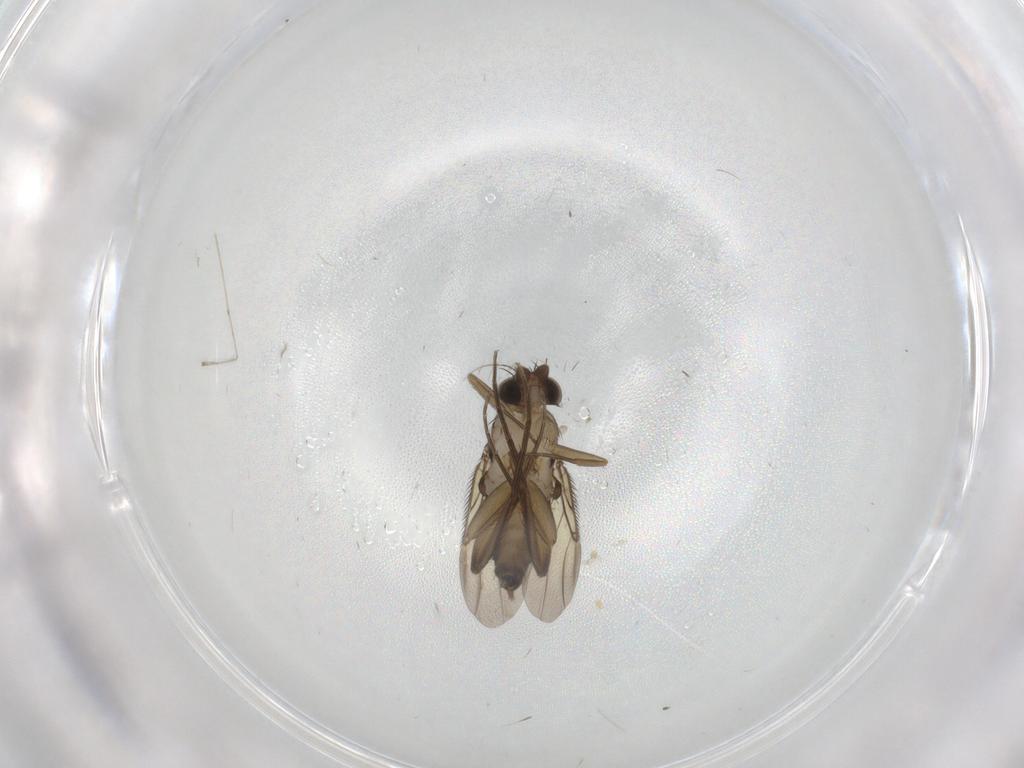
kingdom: Animalia
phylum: Arthropoda
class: Insecta
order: Diptera
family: Phoridae
